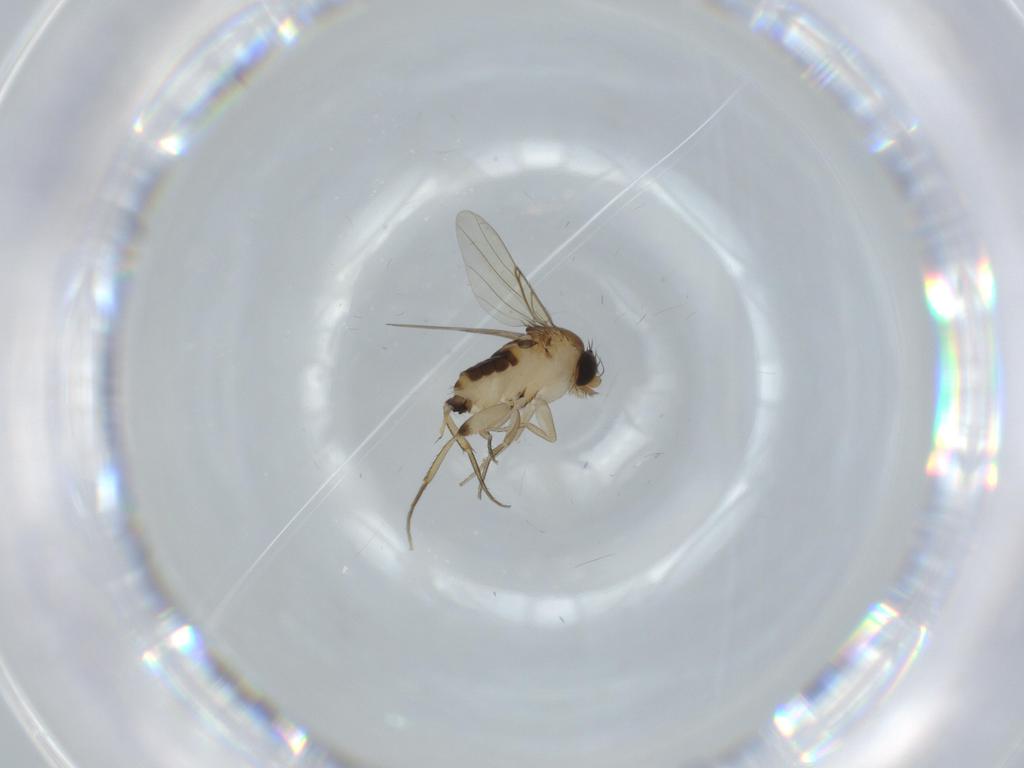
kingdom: Animalia
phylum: Arthropoda
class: Insecta
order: Diptera
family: Phoridae
